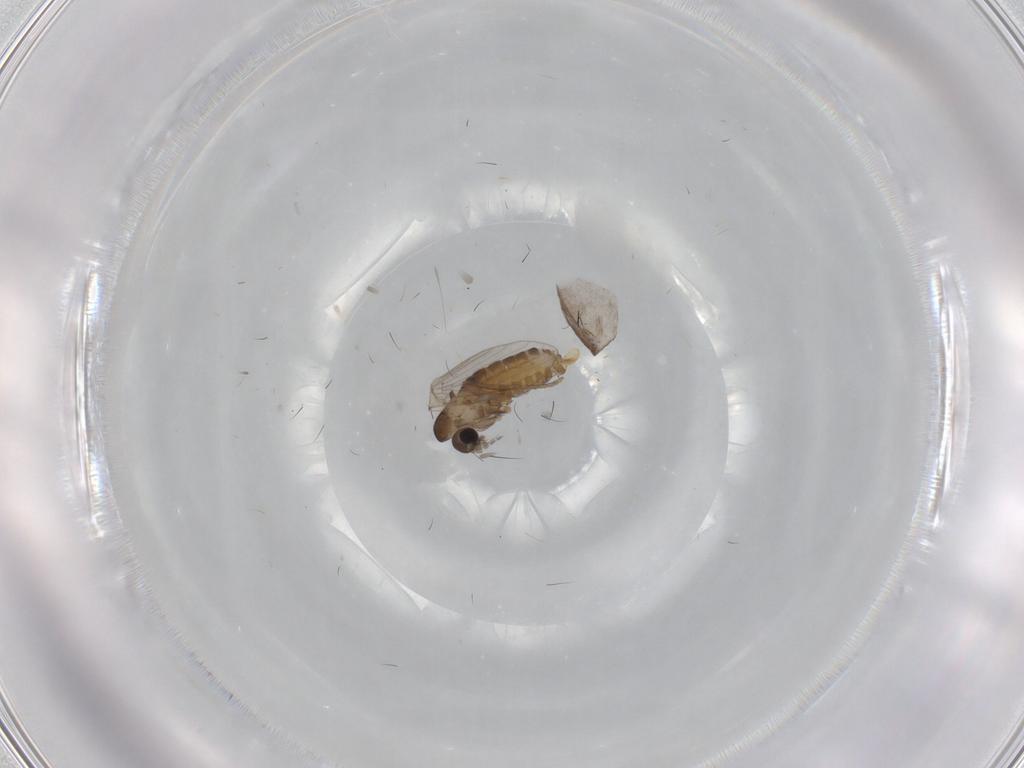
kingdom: Animalia
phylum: Arthropoda
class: Insecta
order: Diptera
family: Psychodidae
